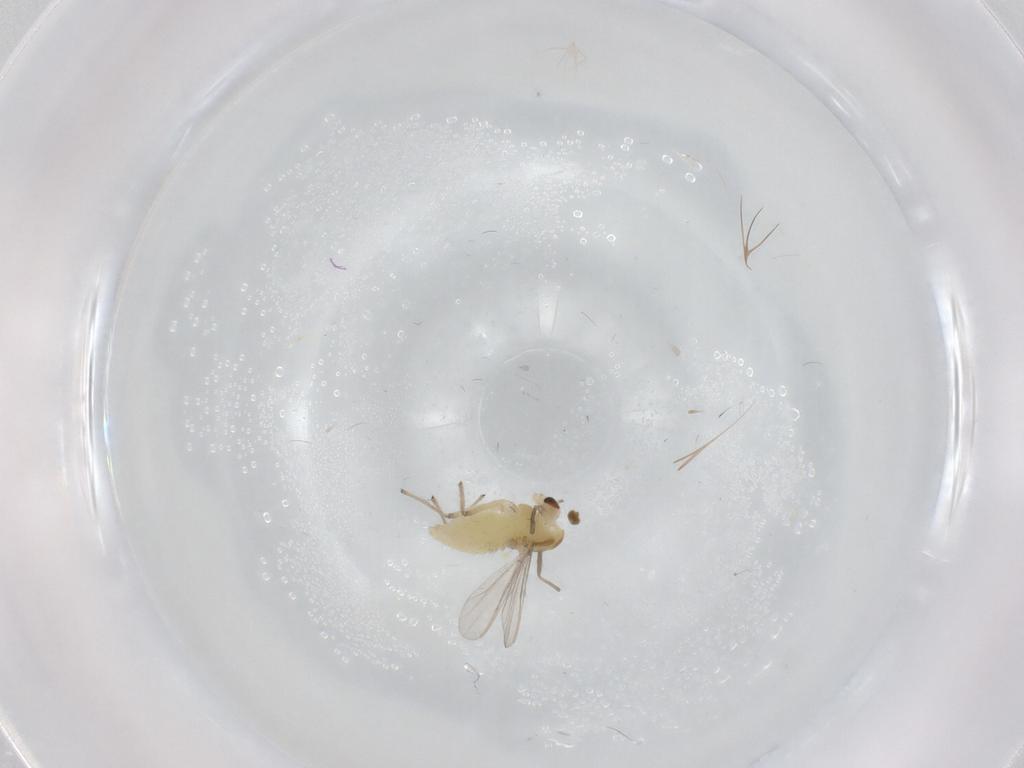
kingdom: Animalia
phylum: Arthropoda
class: Insecta
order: Diptera
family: Chironomidae
